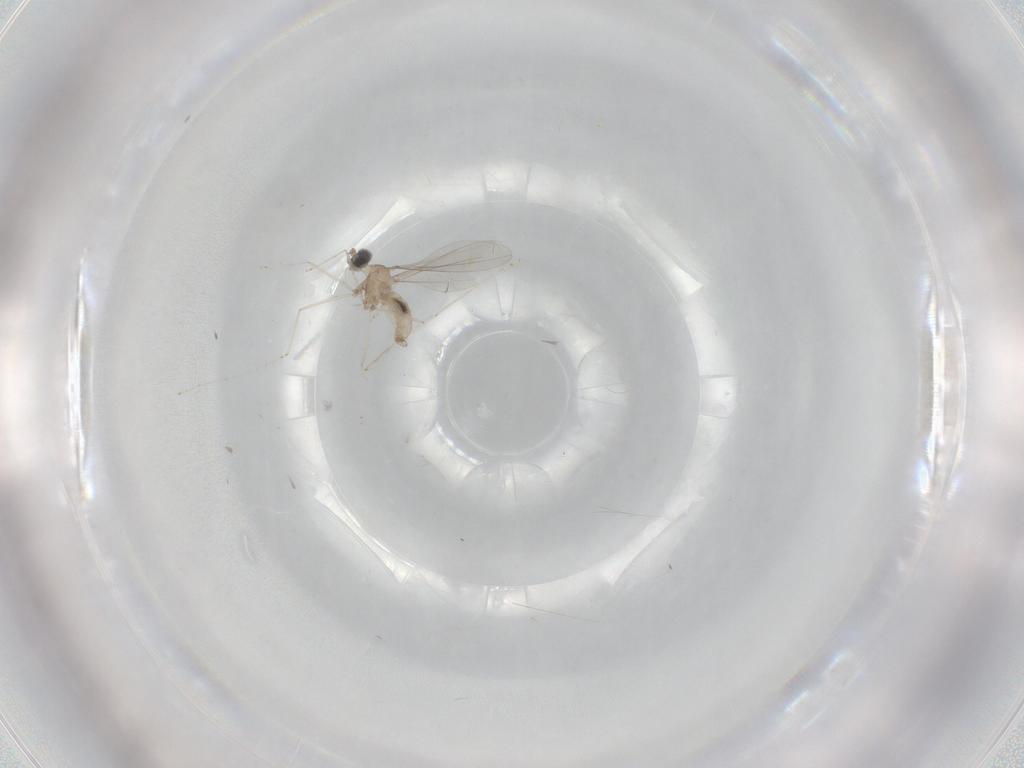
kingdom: Animalia
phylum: Arthropoda
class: Insecta
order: Diptera
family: Cecidomyiidae
